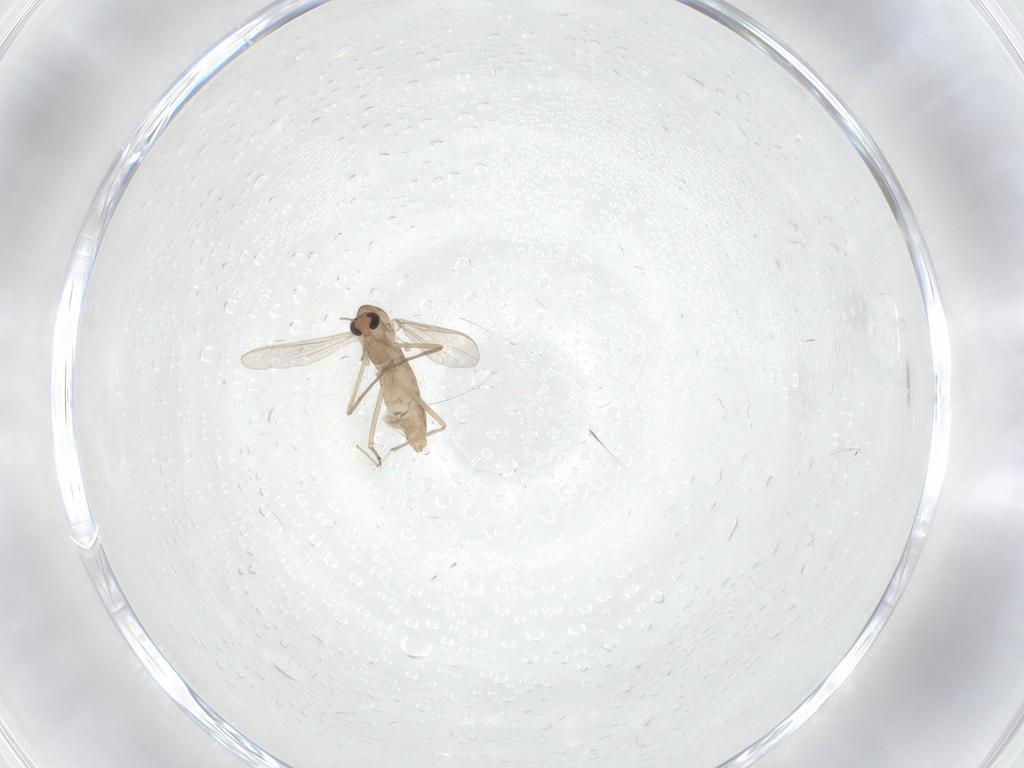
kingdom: Animalia
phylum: Arthropoda
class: Insecta
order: Diptera
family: Chironomidae
